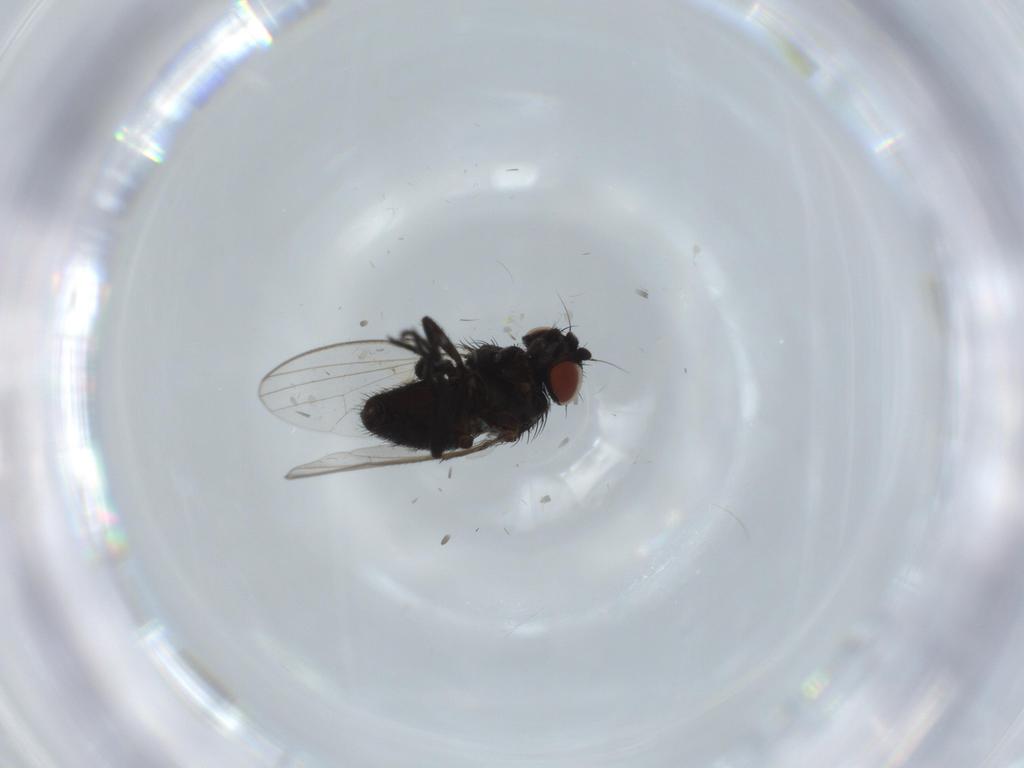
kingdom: Animalia
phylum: Arthropoda
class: Insecta
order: Diptera
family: Milichiidae
